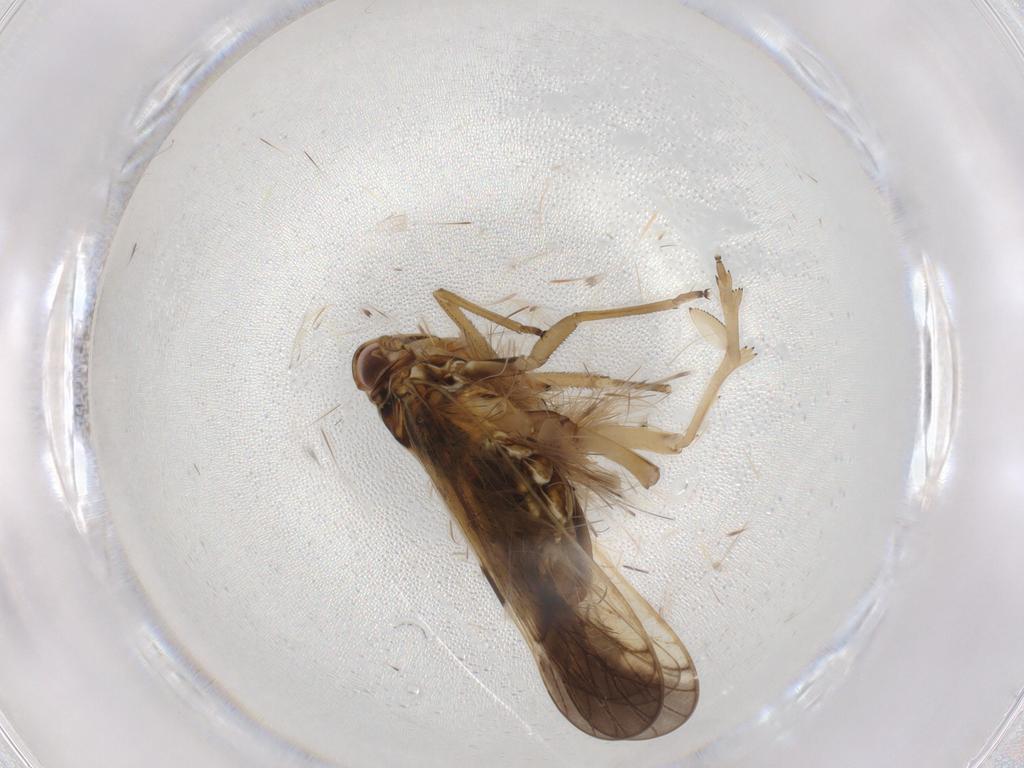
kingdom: Animalia
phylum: Arthropoda
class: Insecta
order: Hemiptera
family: Delphacidae
